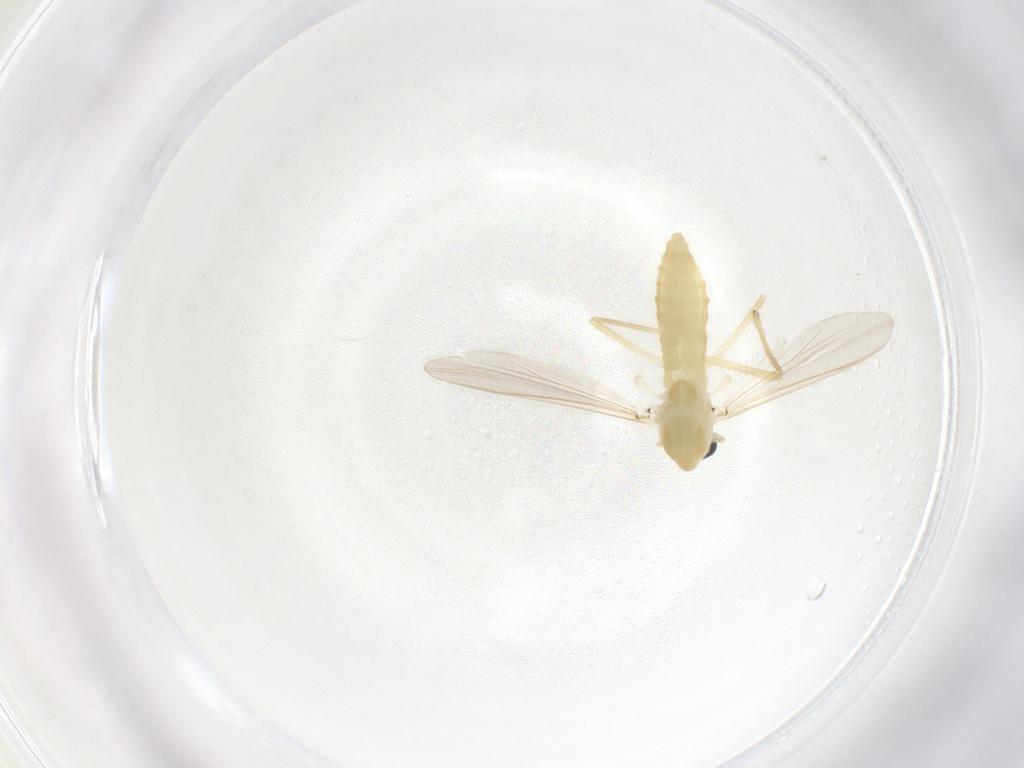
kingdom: Animalia
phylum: Arthropoda
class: Insecta
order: Diptera
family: Chironomidae
